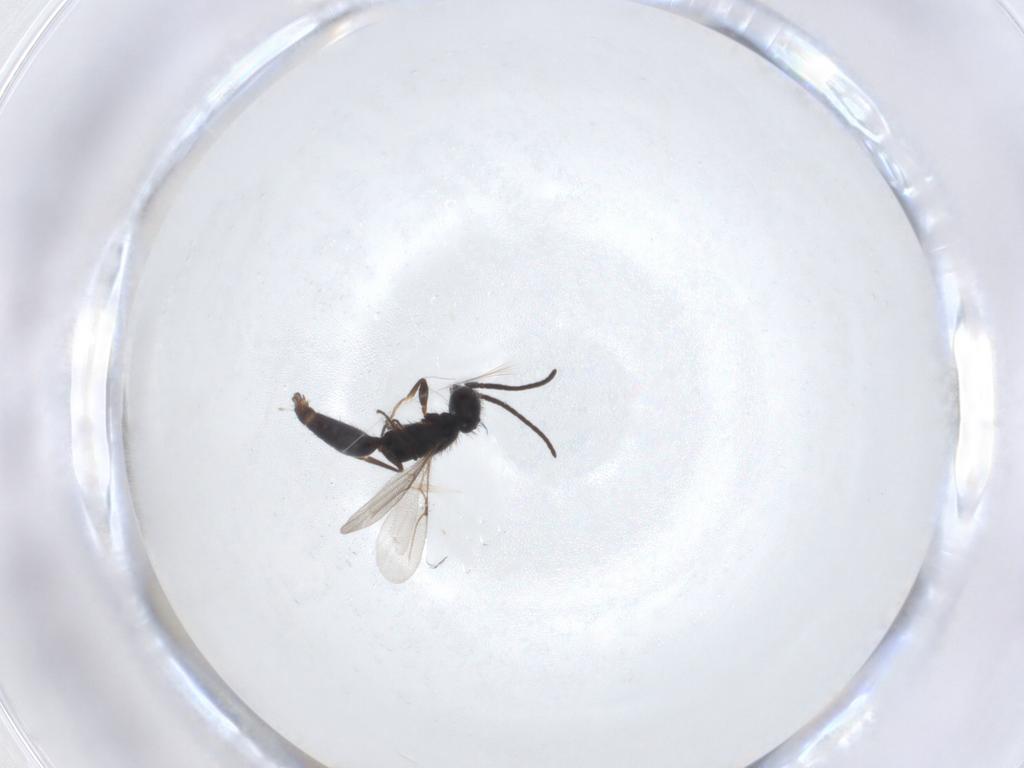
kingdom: Animalia
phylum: Arthropoda
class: Insecta
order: Hymenoptera
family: Bethylidae
